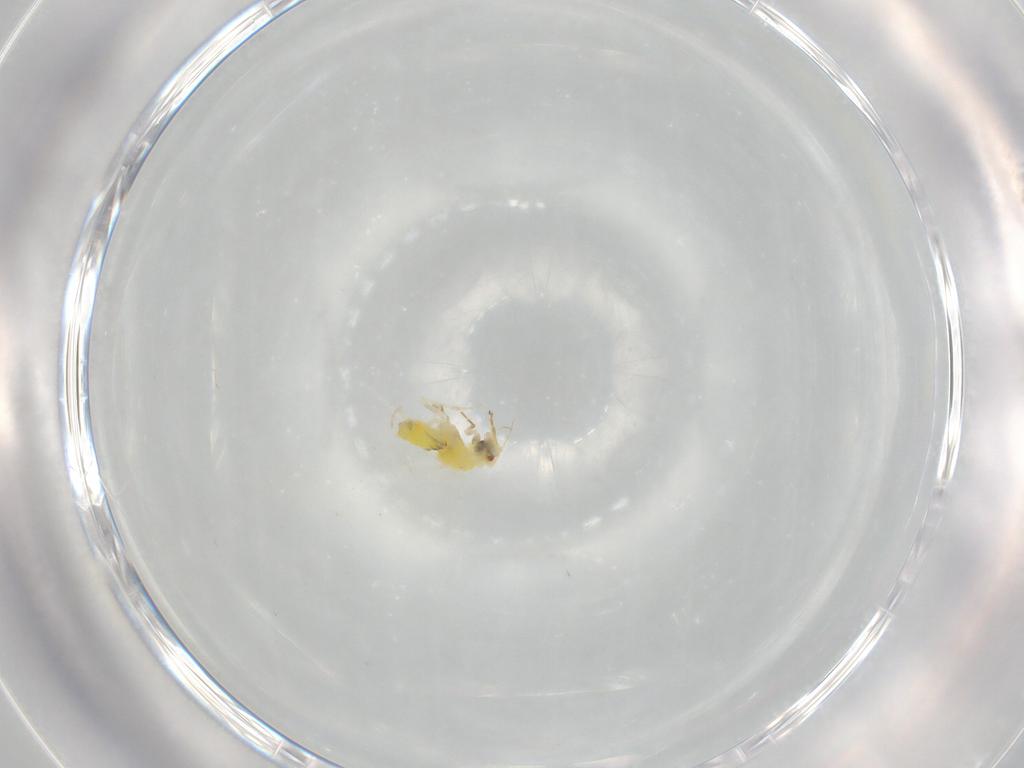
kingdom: Animalia
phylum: Arthropoda
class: Insecta
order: Hemiptera
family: Aleyrodidae
